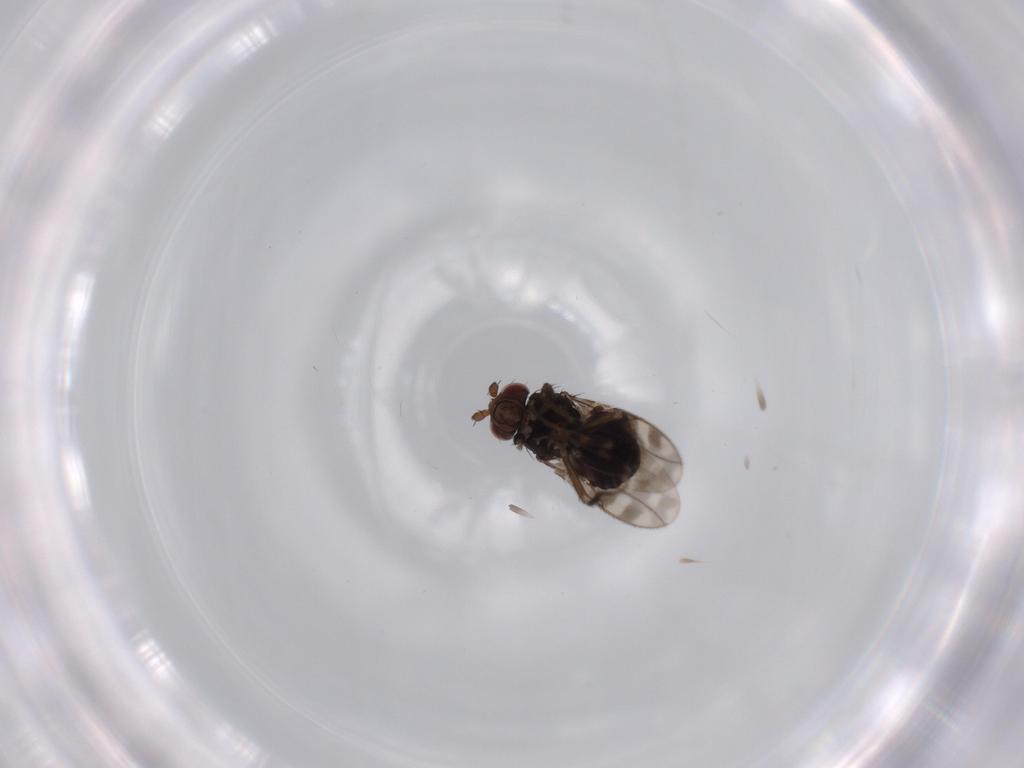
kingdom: Animalia
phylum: Arthropoda
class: Insecta
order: Diptera
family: Sphaeroceridae
